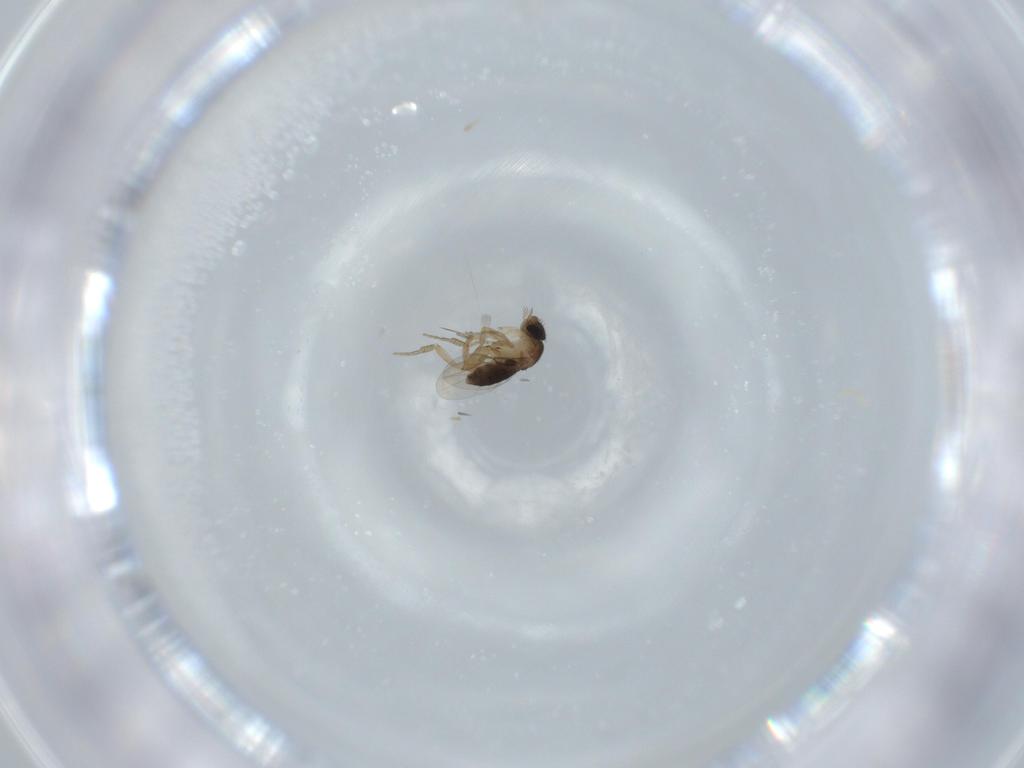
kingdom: Animalia
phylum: Arthropoda
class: Insecta
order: Diptera
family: Phoridae
